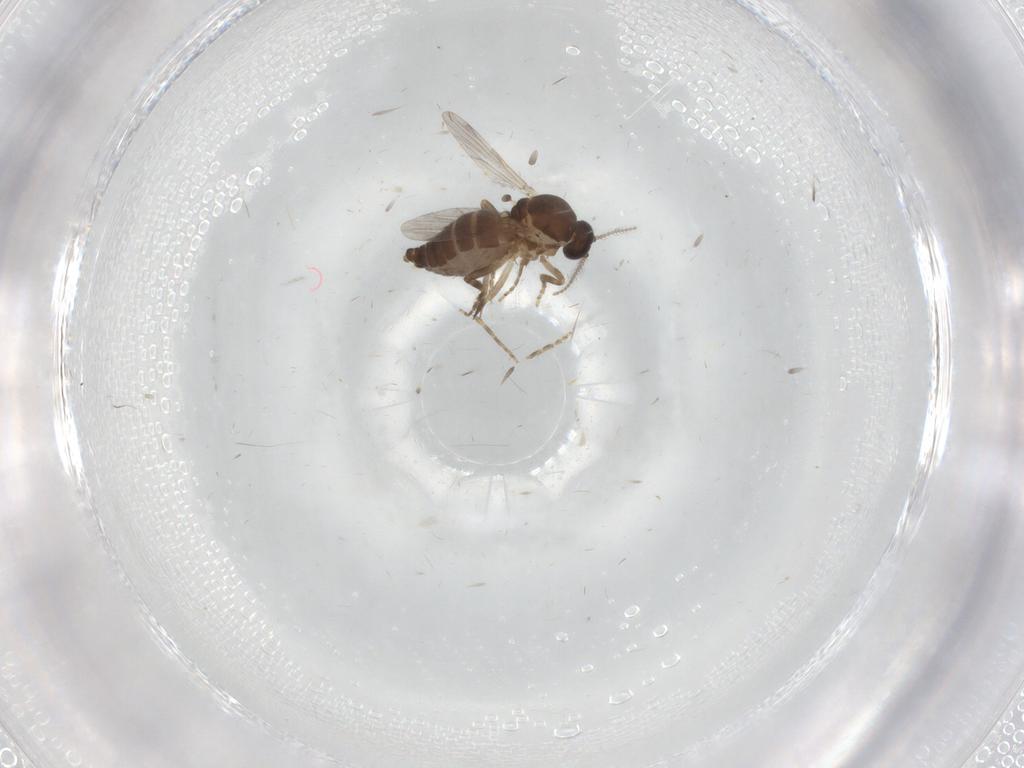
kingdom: Animalia
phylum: Arthropoda
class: Insecta
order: Diptera
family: Ceratopogonidae
